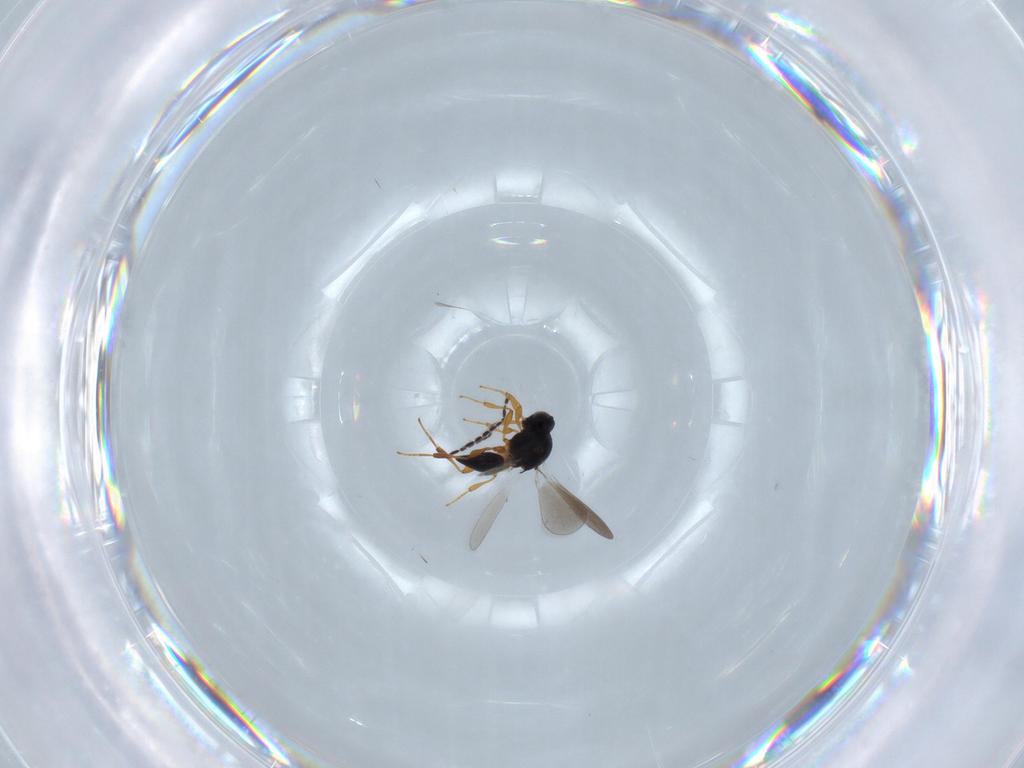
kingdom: Animalia
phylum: Arthropoda
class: Insecta
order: Hymenoptera
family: Platygastridae
